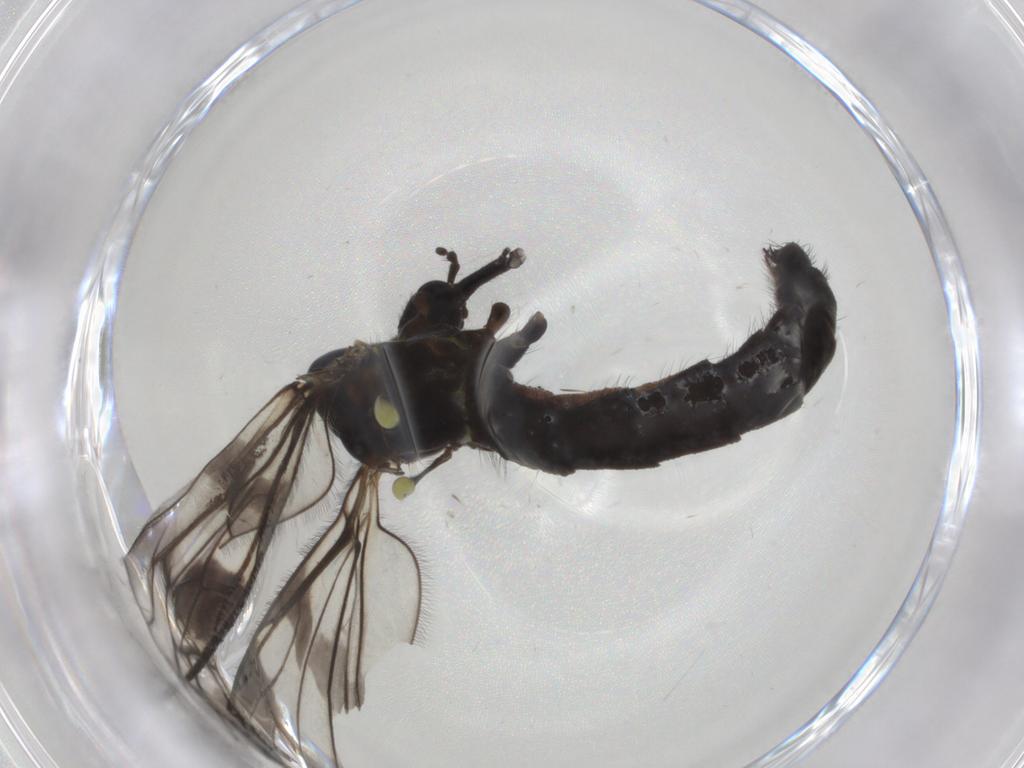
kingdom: Animalia
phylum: Arthropoda
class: Insecta
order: Diptera
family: Limoniidae
